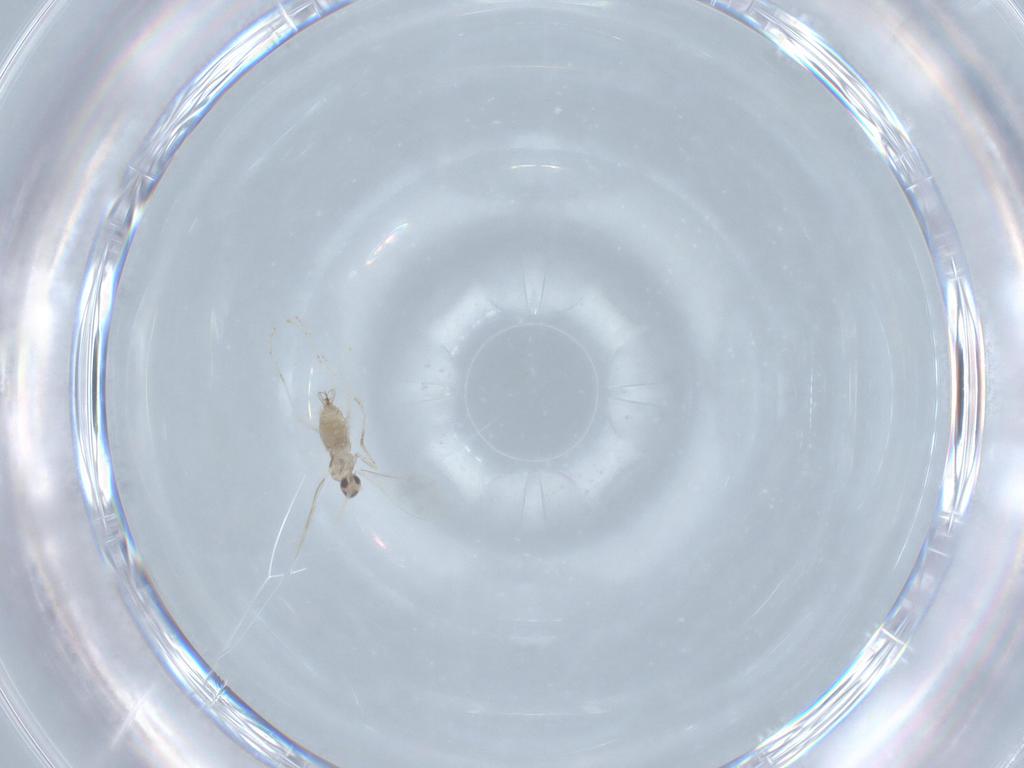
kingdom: Animalia
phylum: Arthropoda
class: Insecta
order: Diptera
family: Cecidomyiidae
